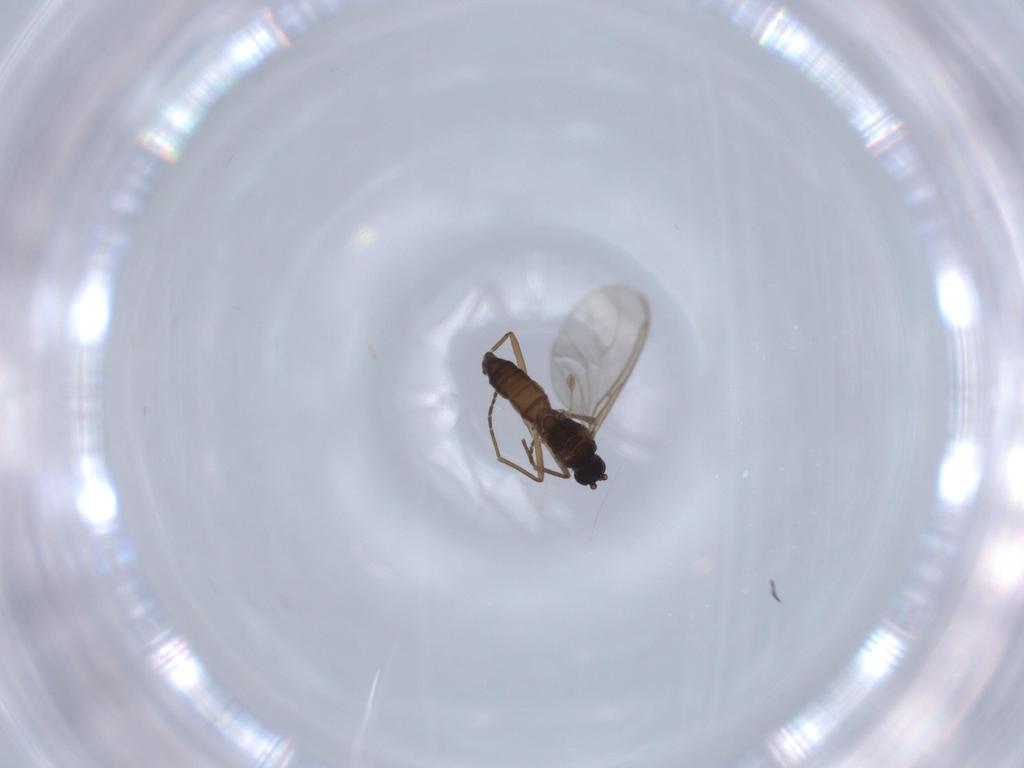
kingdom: Animalia
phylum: Arthropoda
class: Insecta
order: Diptera
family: Phoridae
